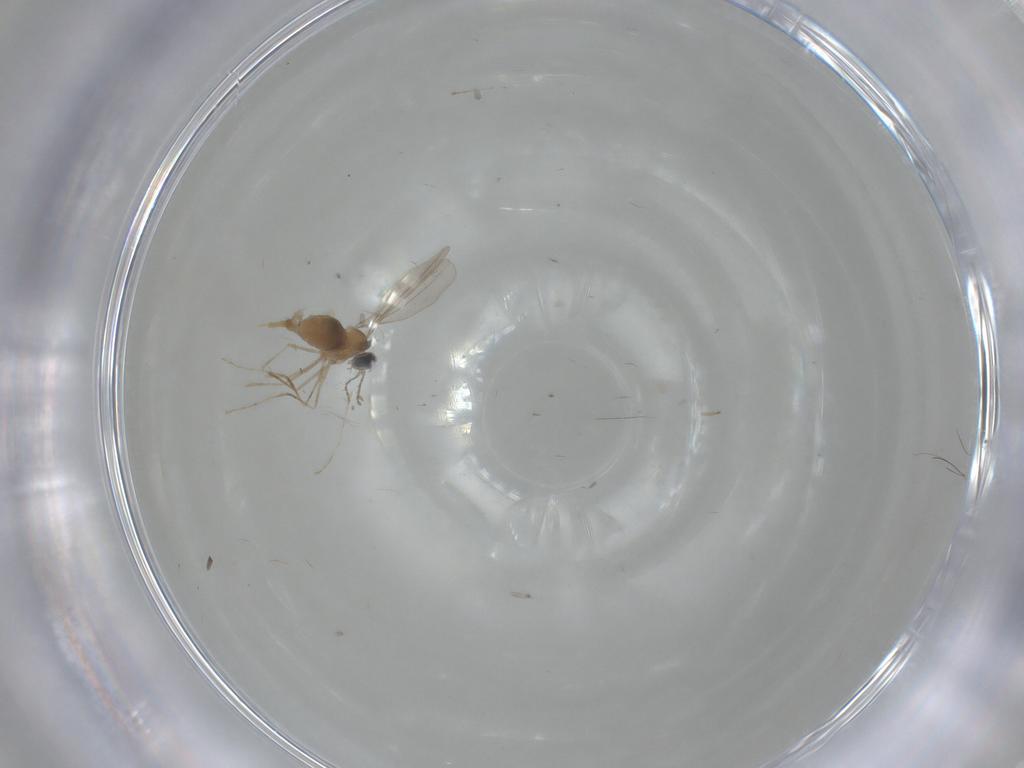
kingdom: Animalia
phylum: Arthropoda
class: Insecta
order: Diptera
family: Cecidomyiidae
